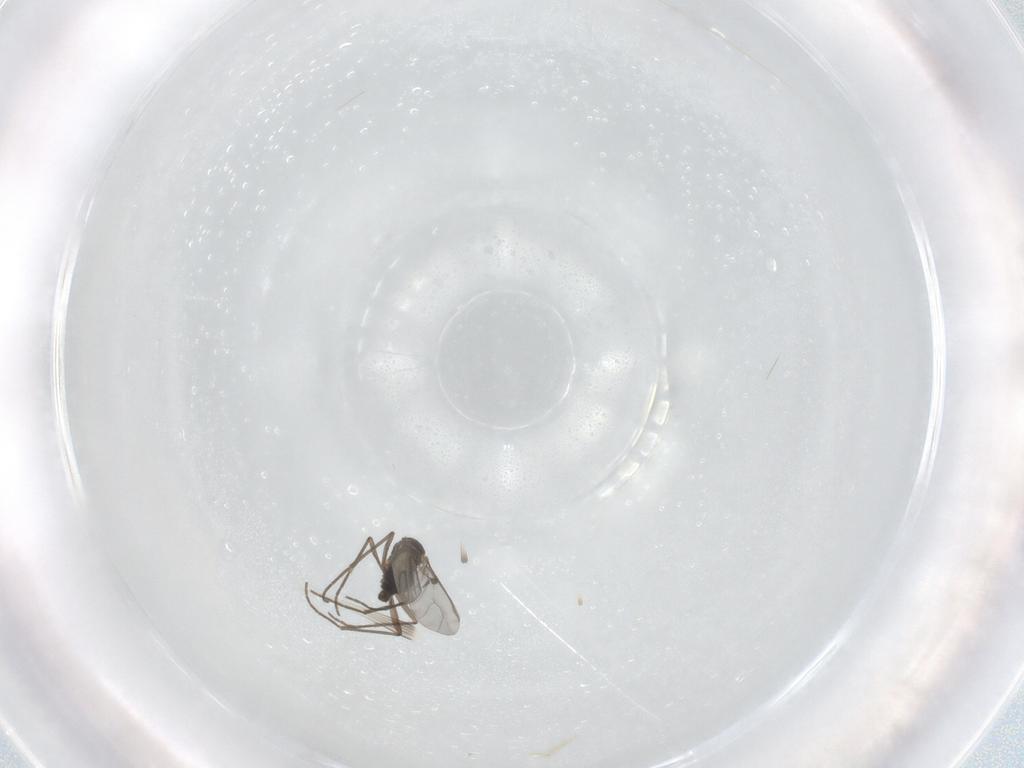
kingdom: Animalia
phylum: Arthropoda
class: Insecta
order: Diptera
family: Sciaridae
